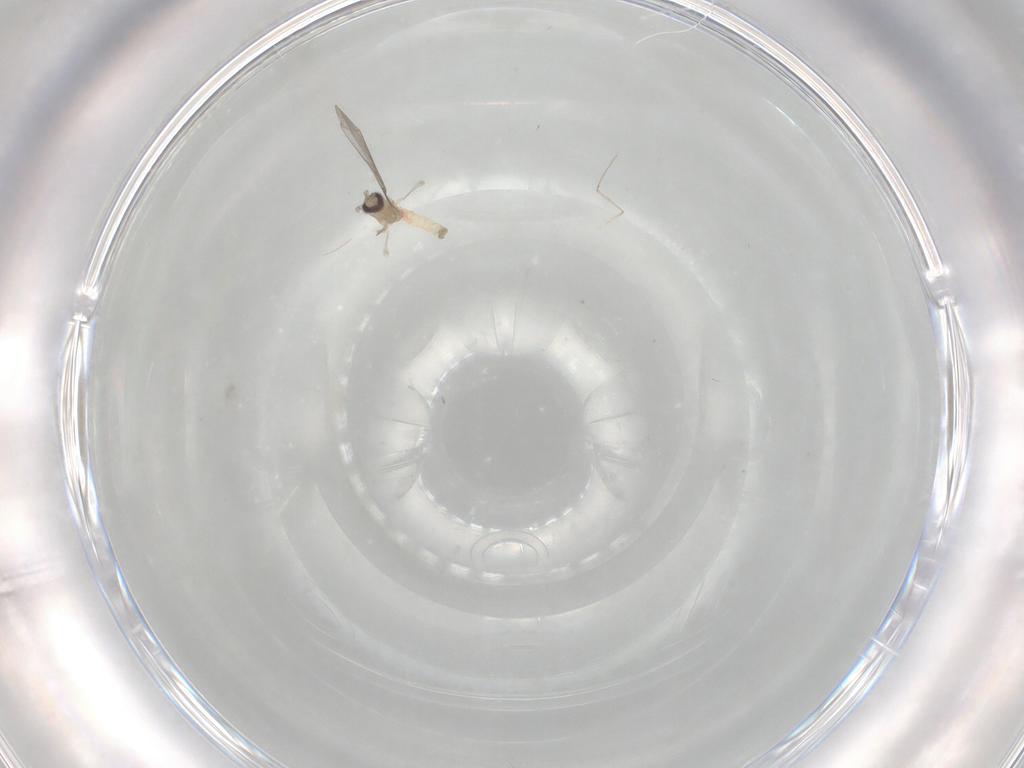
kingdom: Animalia
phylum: Arthropoda
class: Insecta
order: Diptera
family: Cecidomyiidae
